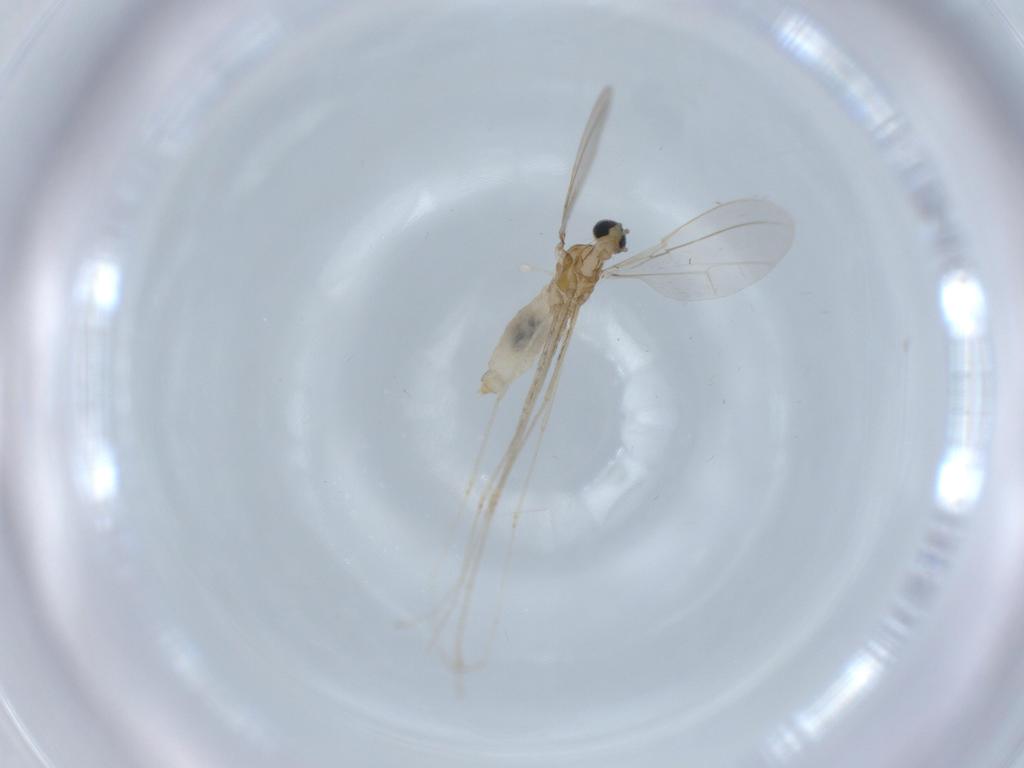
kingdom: Animalia
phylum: Arthropoda
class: Insecta
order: Diptera
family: Cecidomyiidae
